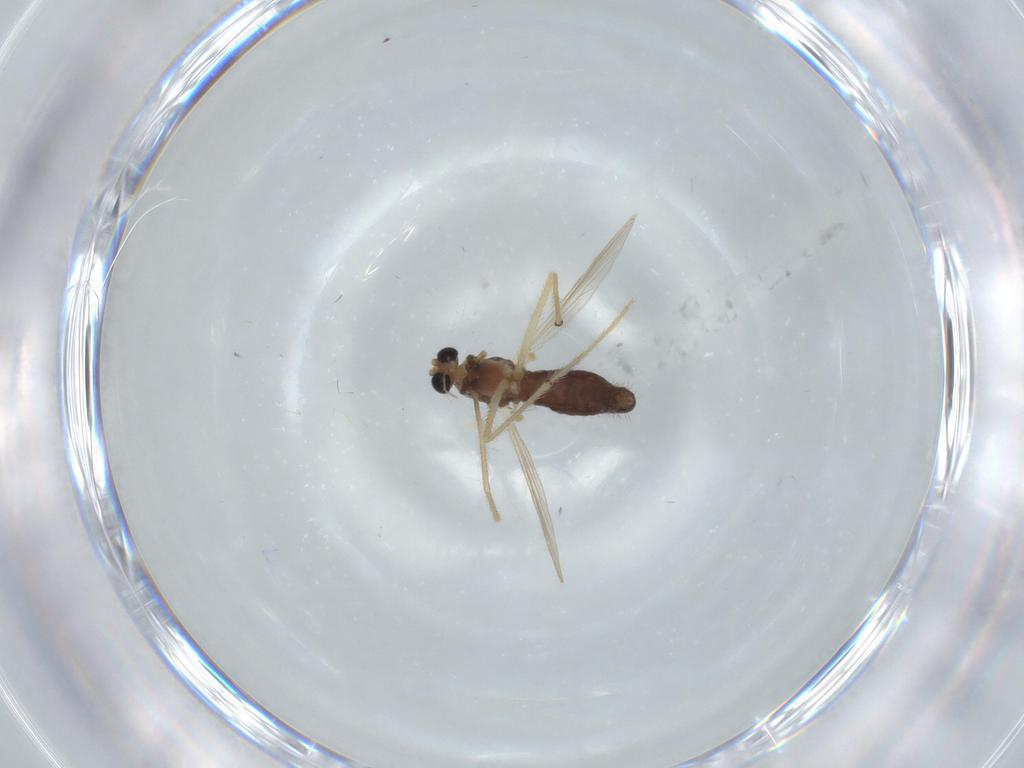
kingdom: Animalia
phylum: Arthropoda
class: Insecta
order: Diptera
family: Chironomidae
